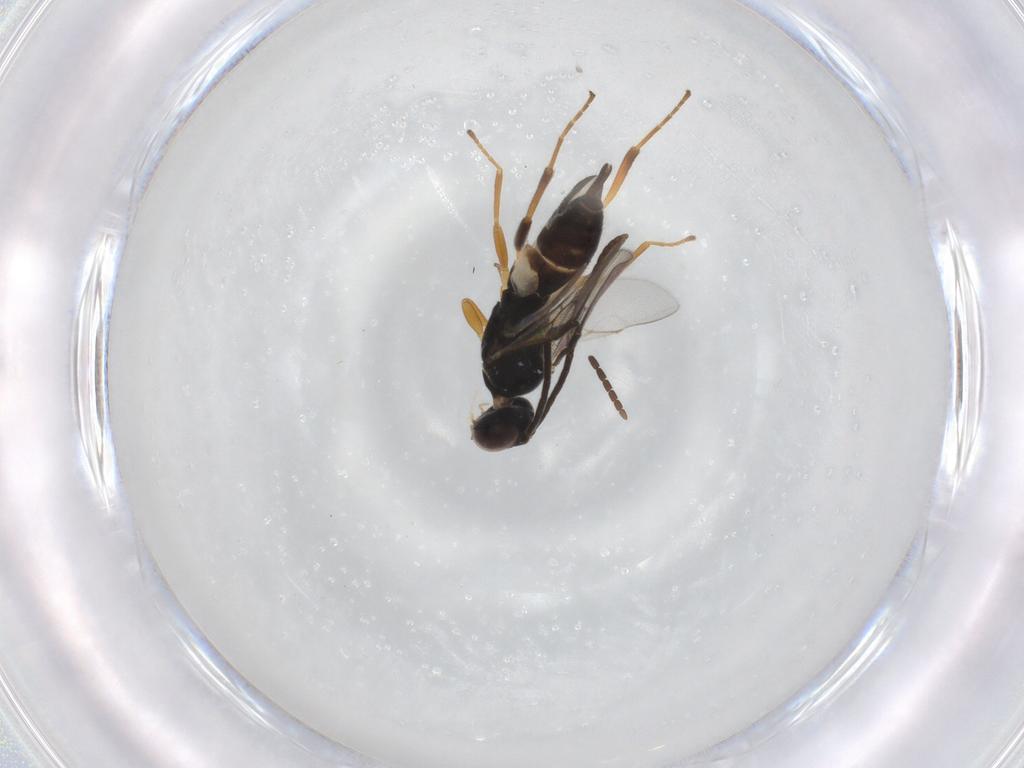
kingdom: Animalia
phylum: Arthropoda
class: Insecta
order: Hymenoptera
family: Braconidae
